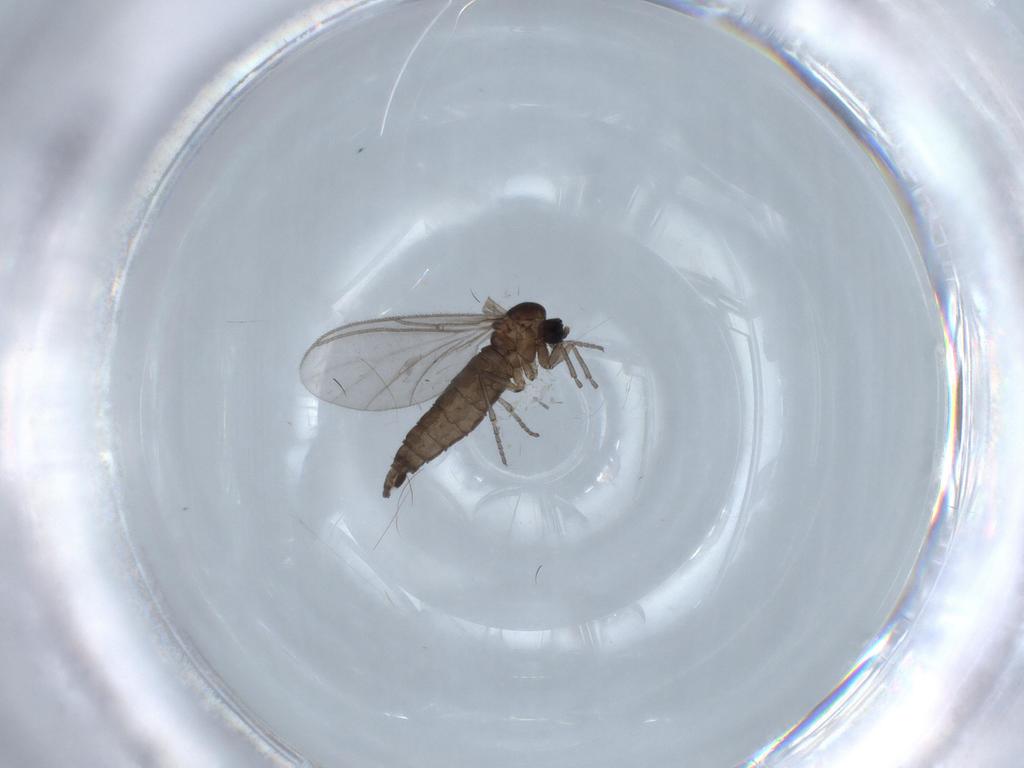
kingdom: Animalia
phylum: Arthropoda
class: Insecta
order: Diptera
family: Sciaridae
